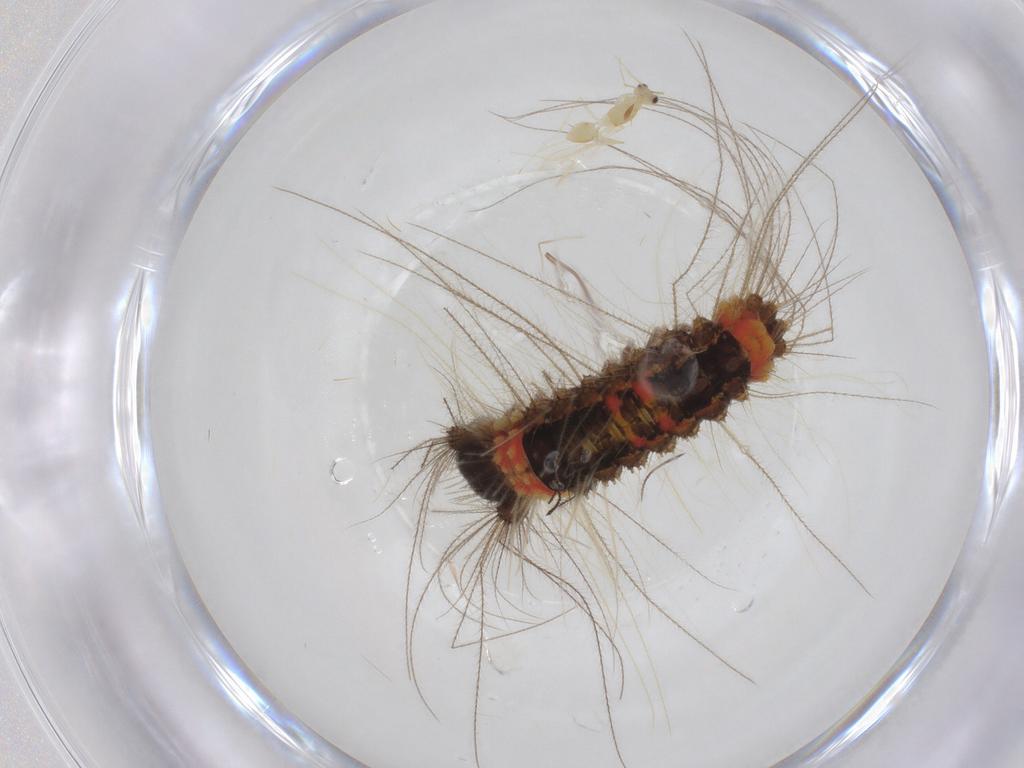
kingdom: Animalia
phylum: Arthropoda
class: Insecta
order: Lepidoptera
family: Erebidae
